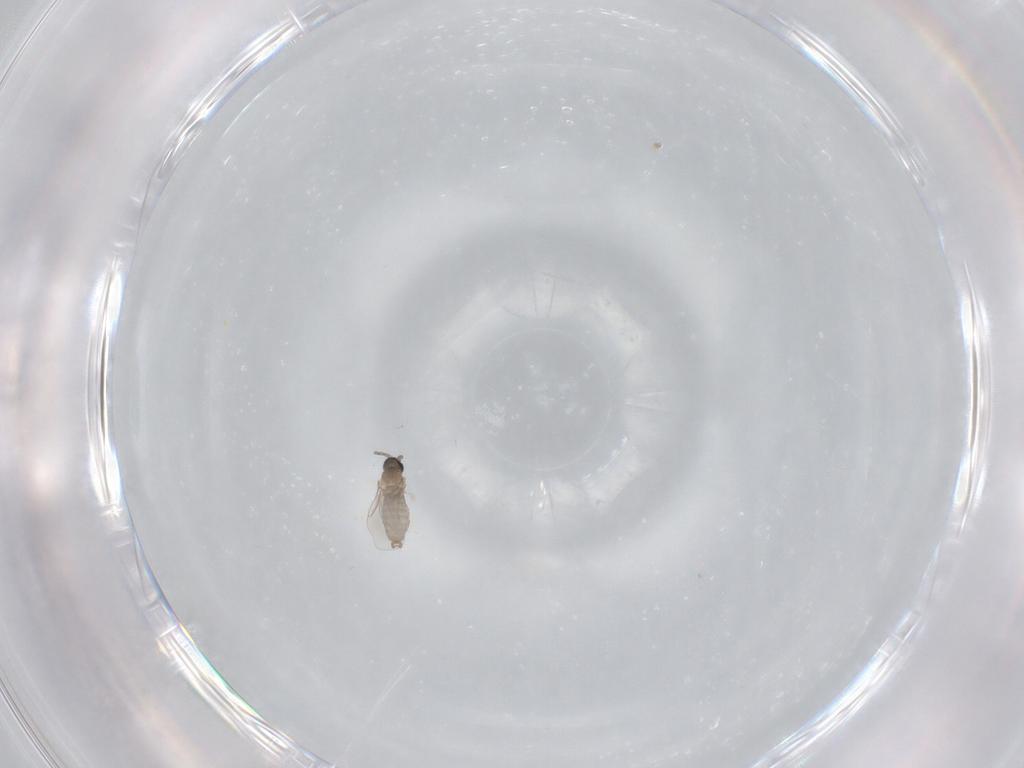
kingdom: Animalia
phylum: Arthropoda
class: Insecta
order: Diptera
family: Cecidomyiidae
